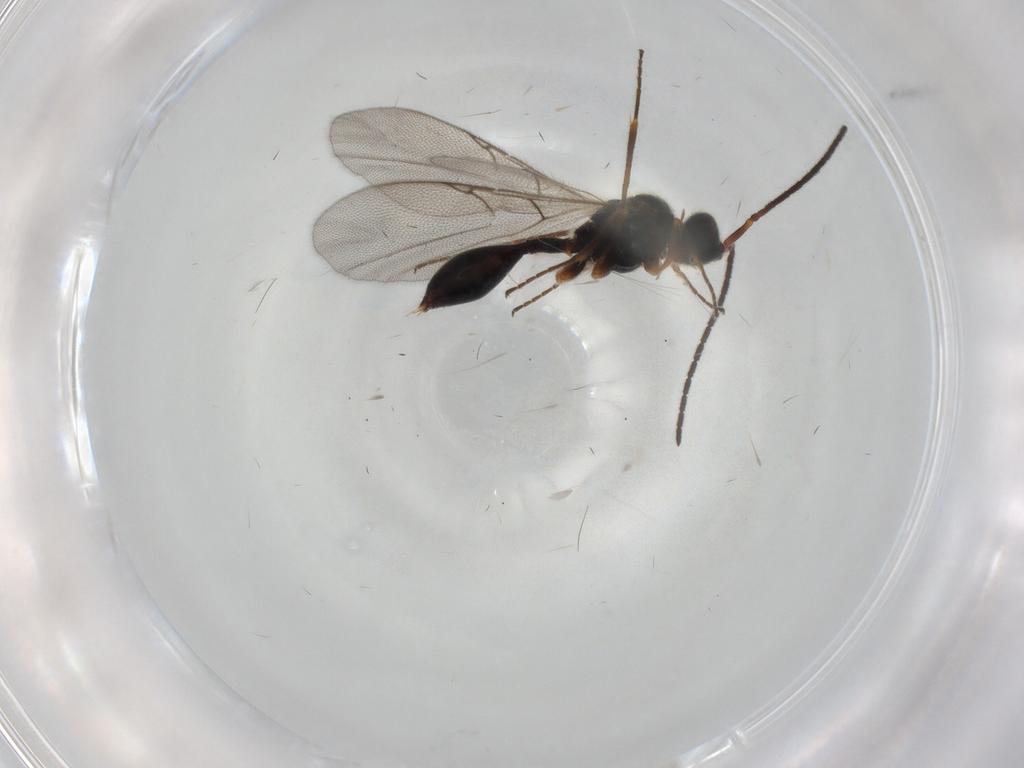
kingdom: Animalia
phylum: Arthropoda
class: Insecta
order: Hymenoptera
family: Diapriidae
